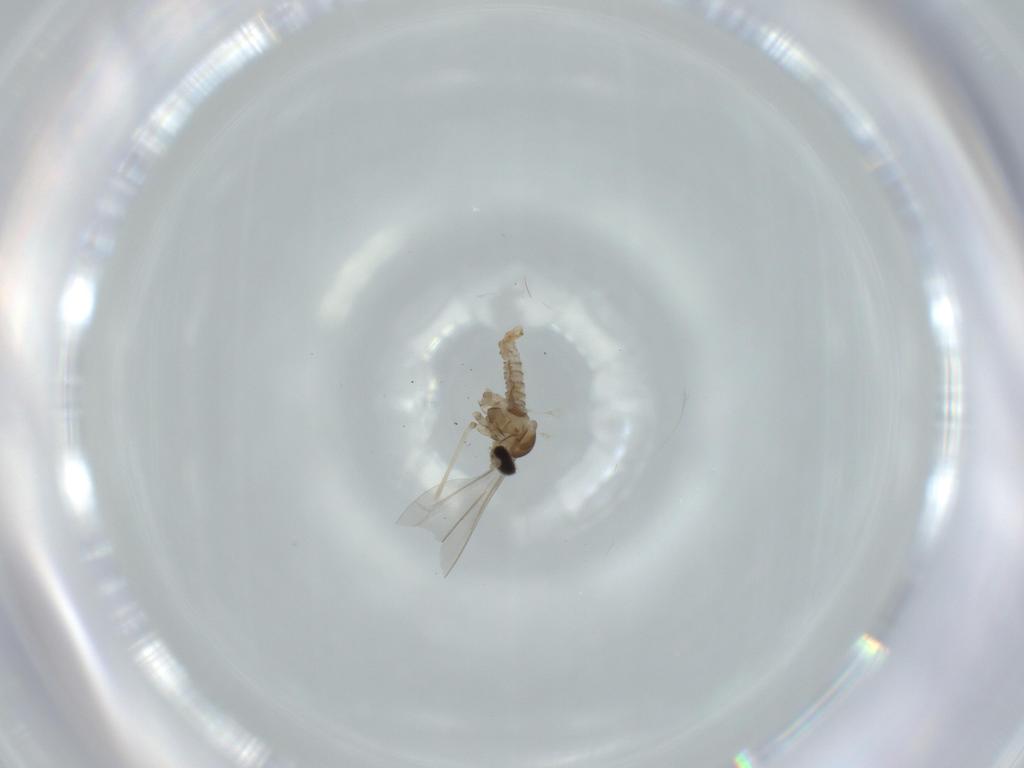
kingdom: Animalia
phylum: Arthropoda
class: Insecta
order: Diptera
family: Cecidomyiidae
